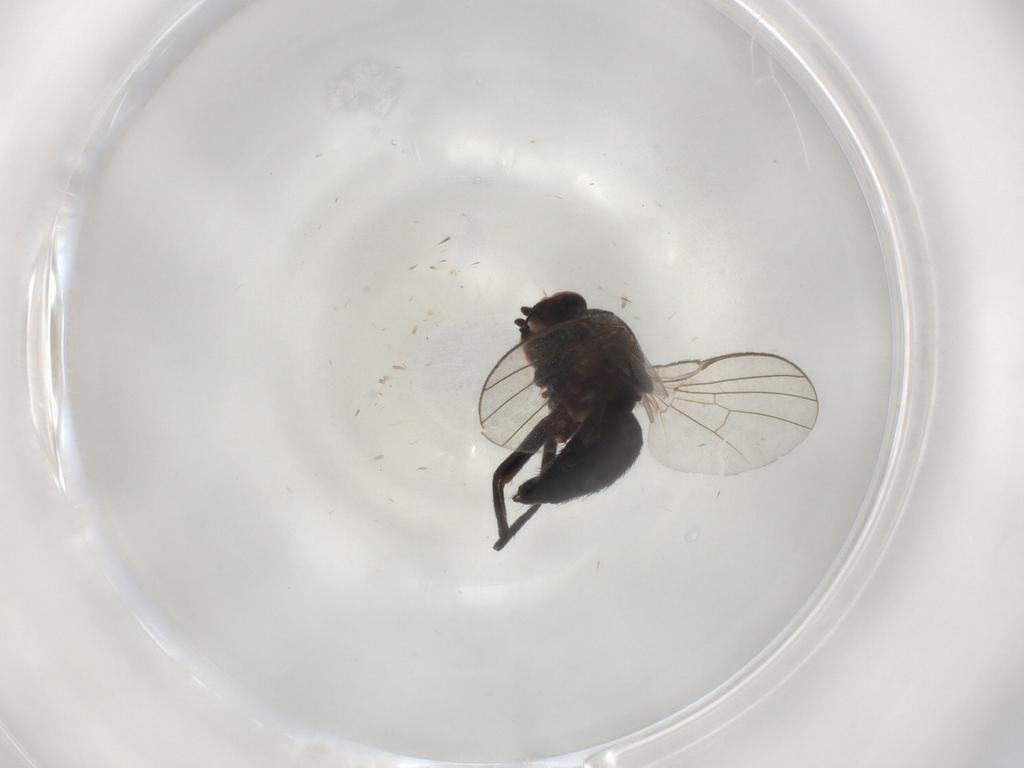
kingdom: Animalia
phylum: Arthropoda
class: Insecta
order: Diptera
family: Agromyzidae
